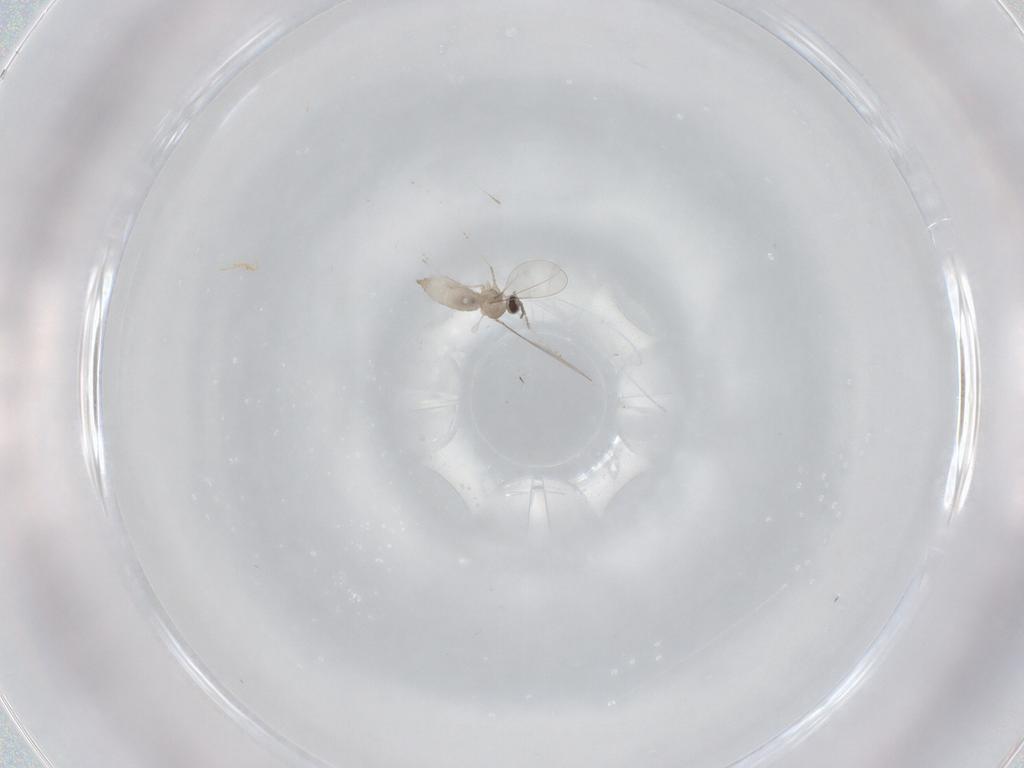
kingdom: Animalia
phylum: Arthropoda
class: Insecta
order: Diptera
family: Cecidomyiidae
